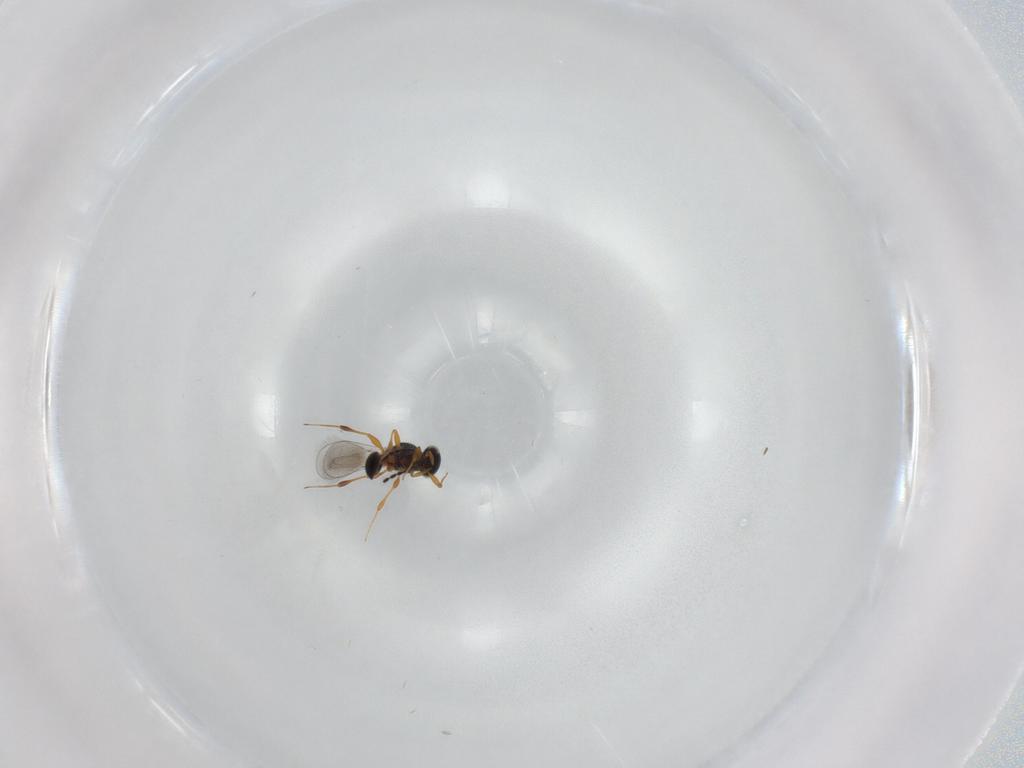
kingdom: Animalia
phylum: Arthropoda
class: Insecta
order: Hymenoptera
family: Platygastridae
